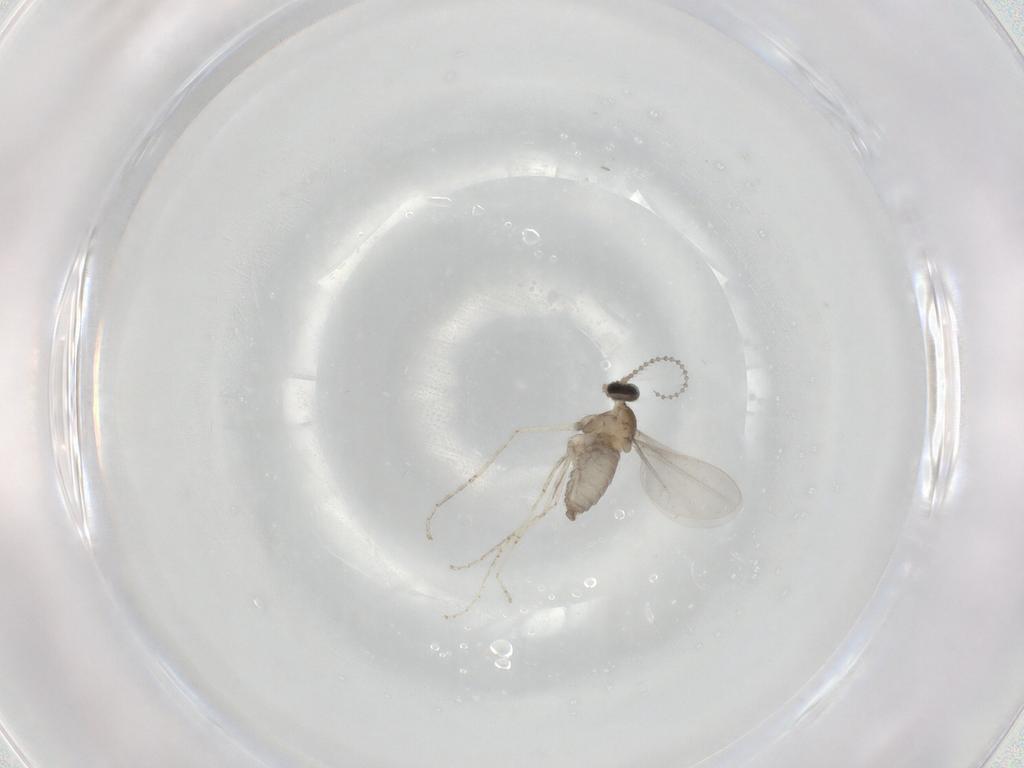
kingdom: Animalia
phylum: Arthropoda
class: Insecta
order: Diptera
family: Cecidomyiidae
